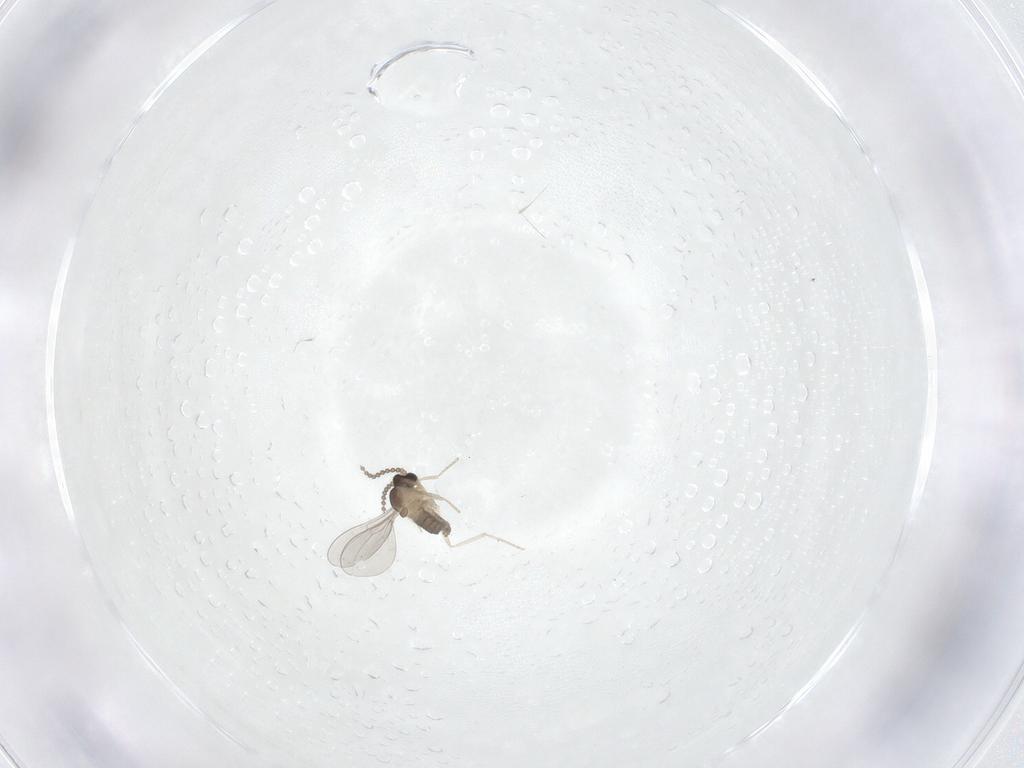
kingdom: Animalia
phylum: Arthropoda
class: Insecta
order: Diptera
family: Cecidomyiidae
